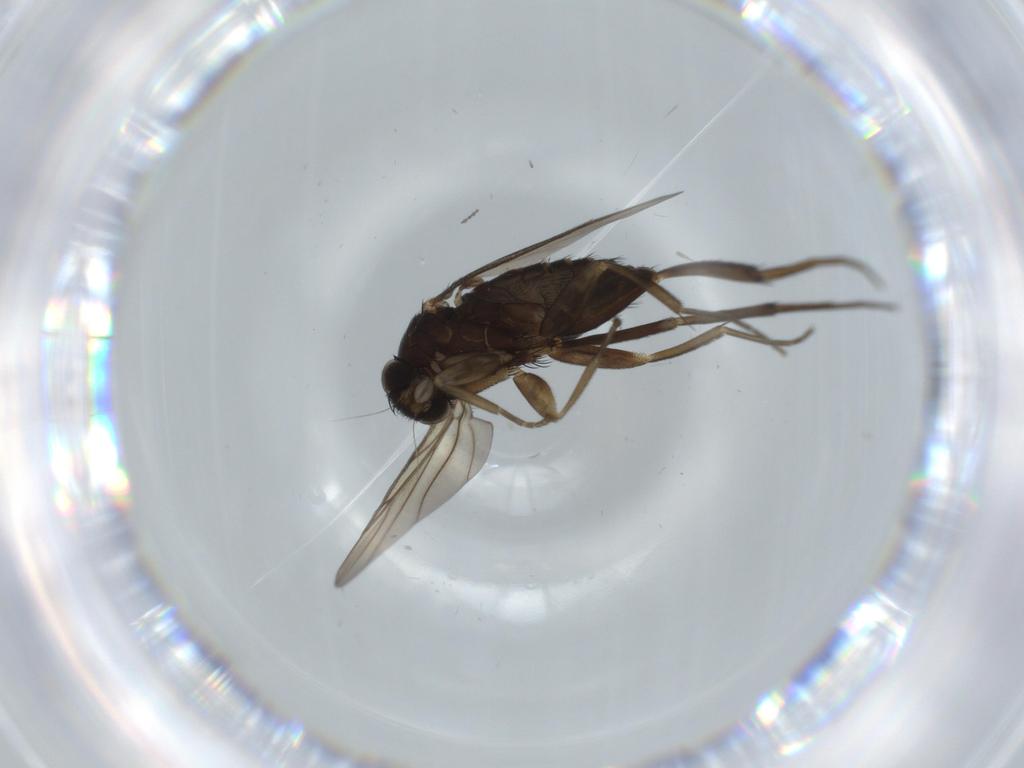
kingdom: Animalia
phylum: Arthropoda
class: Insecta
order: Diptera
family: Cecidomyiidae
